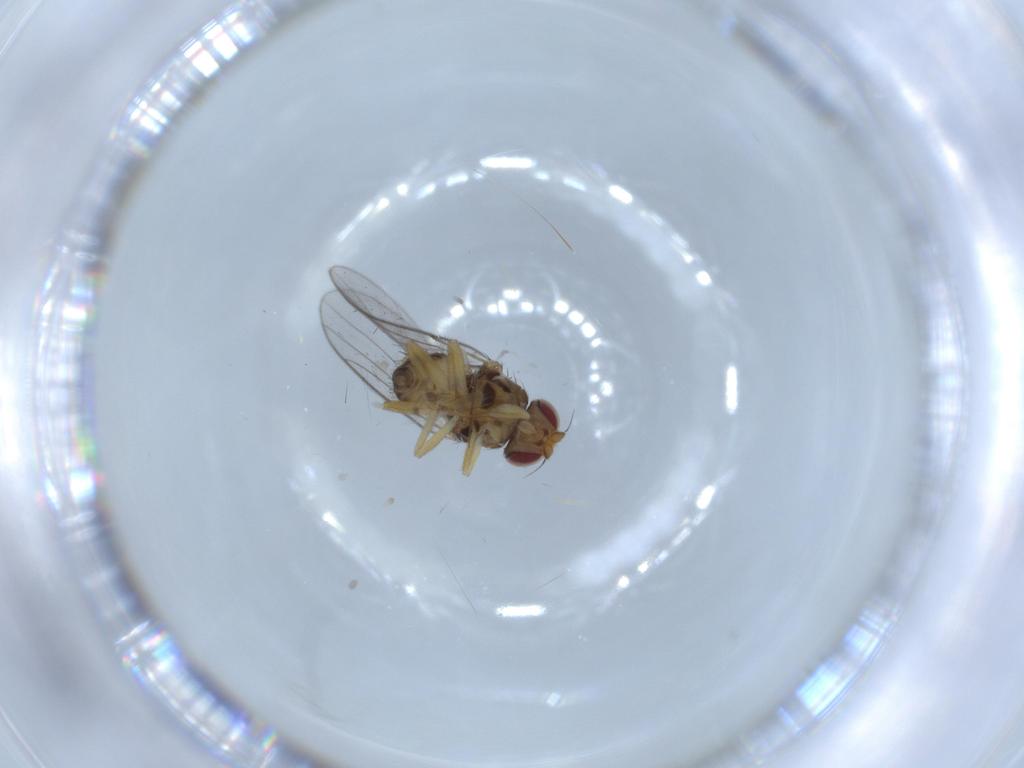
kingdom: Animalia
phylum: Arthropoda
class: Insecta
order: Diptera
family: Chloropidae
